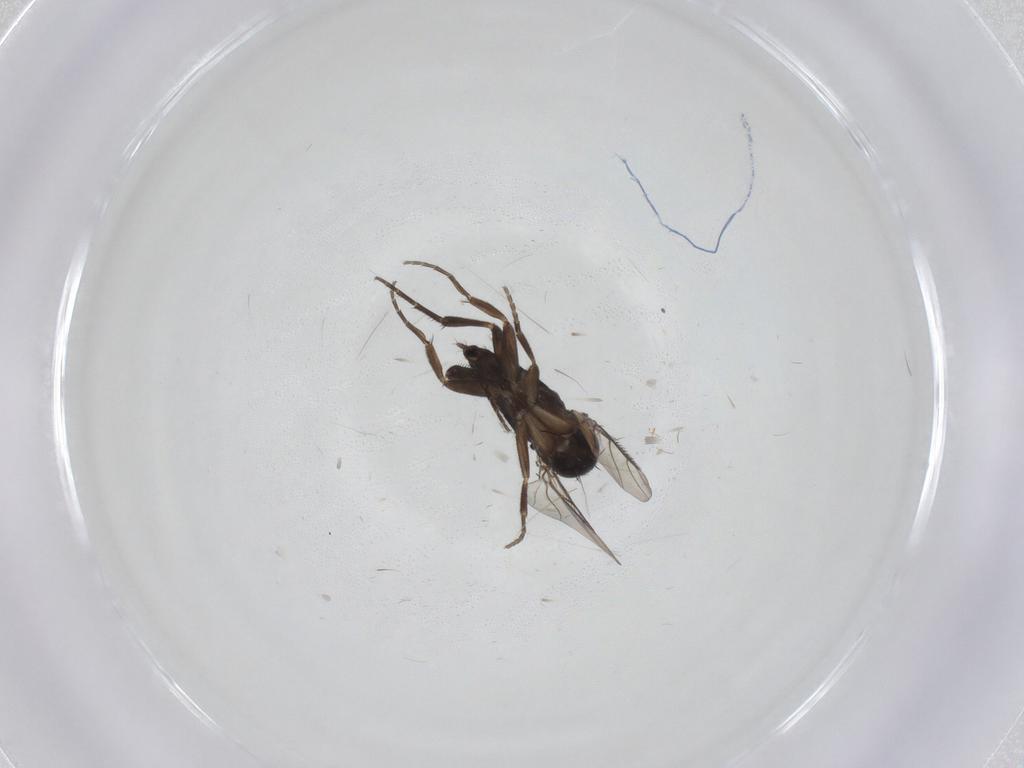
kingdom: Animalia
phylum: Arthropoda
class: Insecta
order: Diptera
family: Phoridae
